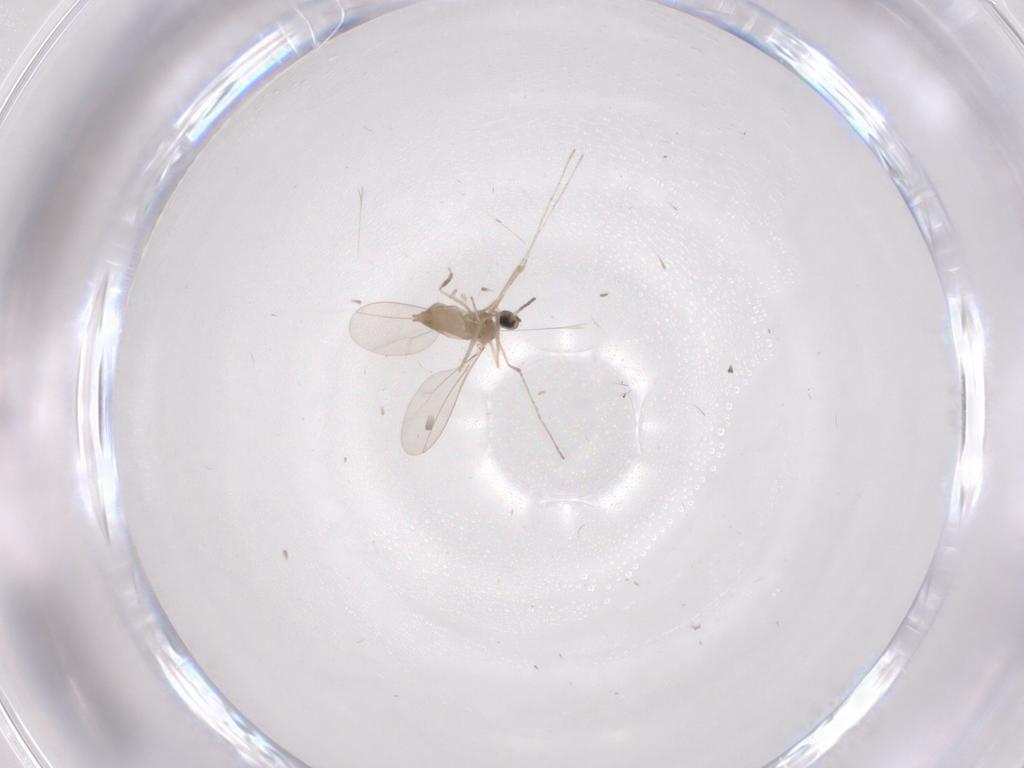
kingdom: Animalia
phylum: Arthropoda
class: Insecta
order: Diptera
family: Cecidomyiidae
